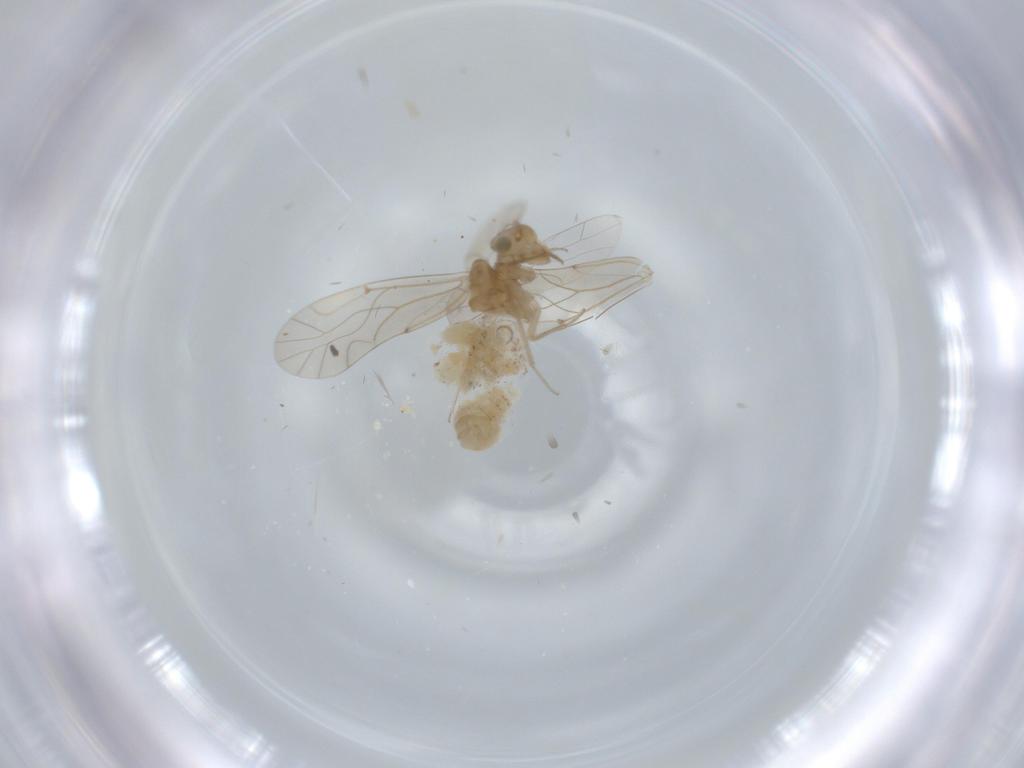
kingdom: Animalia
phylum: Arthropoda
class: Insecta
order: Psocodea
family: Lachesillidae
